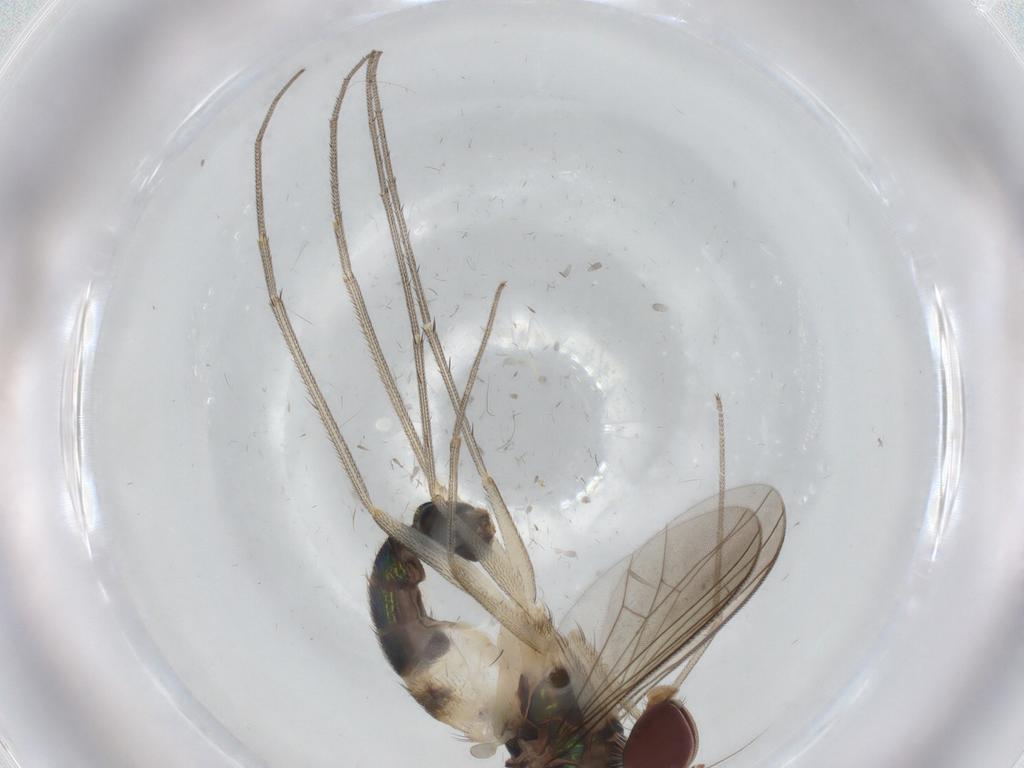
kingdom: Animalia
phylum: Arthropoda
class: Insecta
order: Diptera
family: Dolichopodidae
